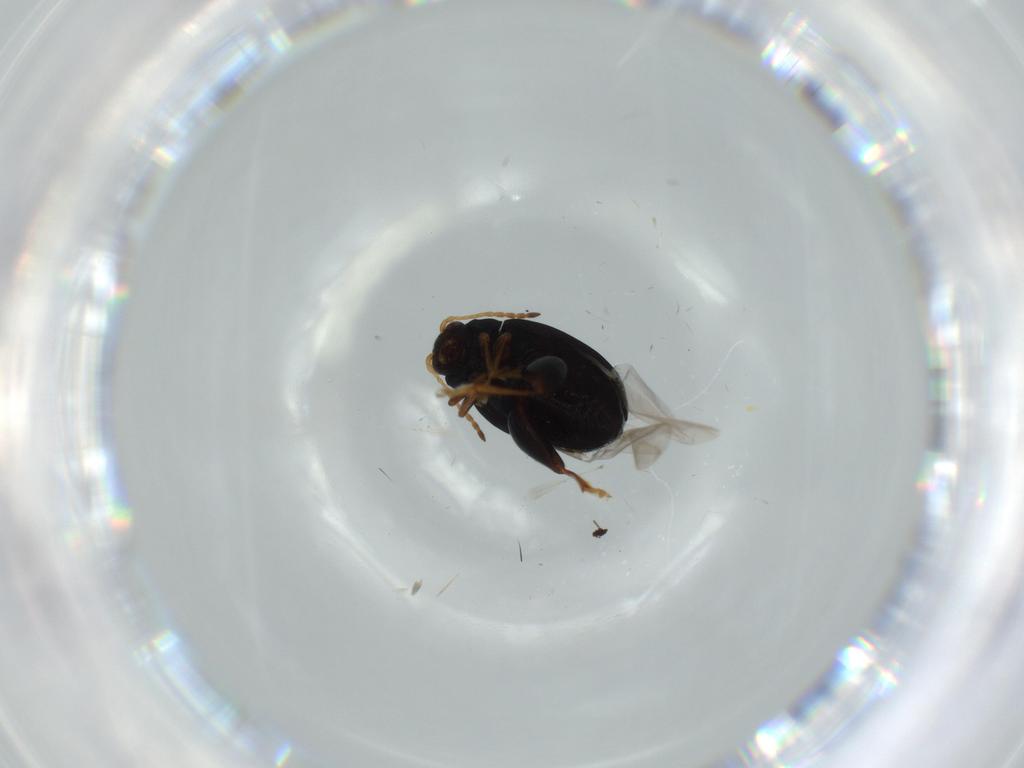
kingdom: Animalia
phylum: Arthropoda
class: Insecta
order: Coleoptera
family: Chrysomelidae
